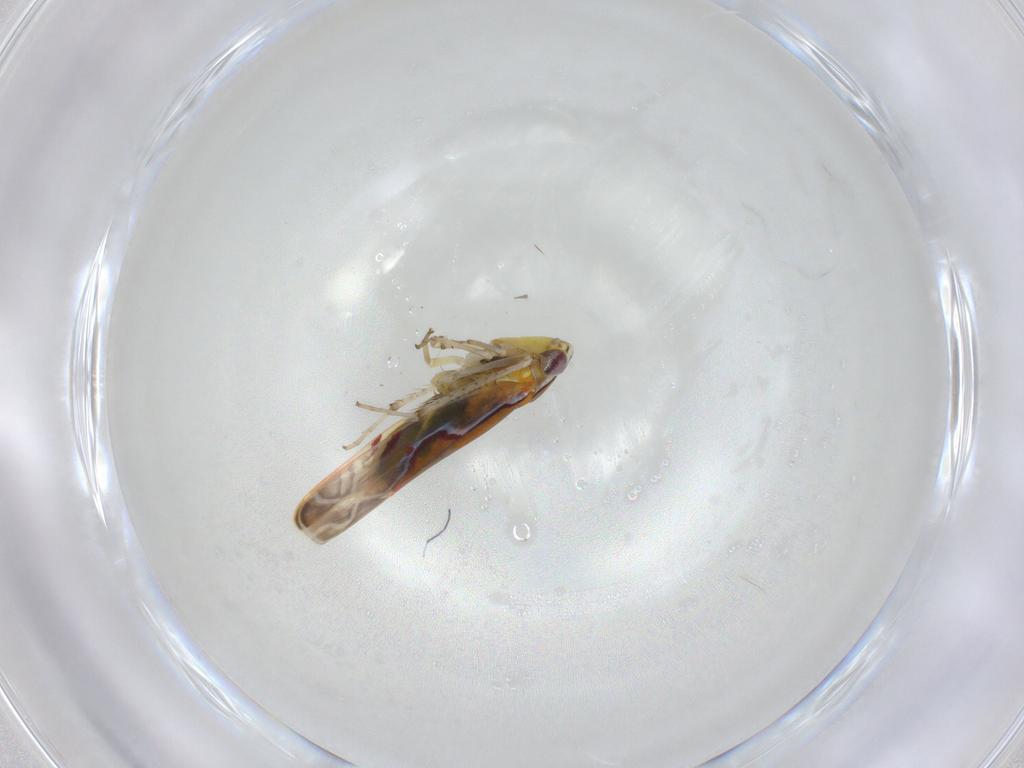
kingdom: Animalia
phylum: Arthropoda
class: Insecta
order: Hemiptera
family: Cicadellidae
